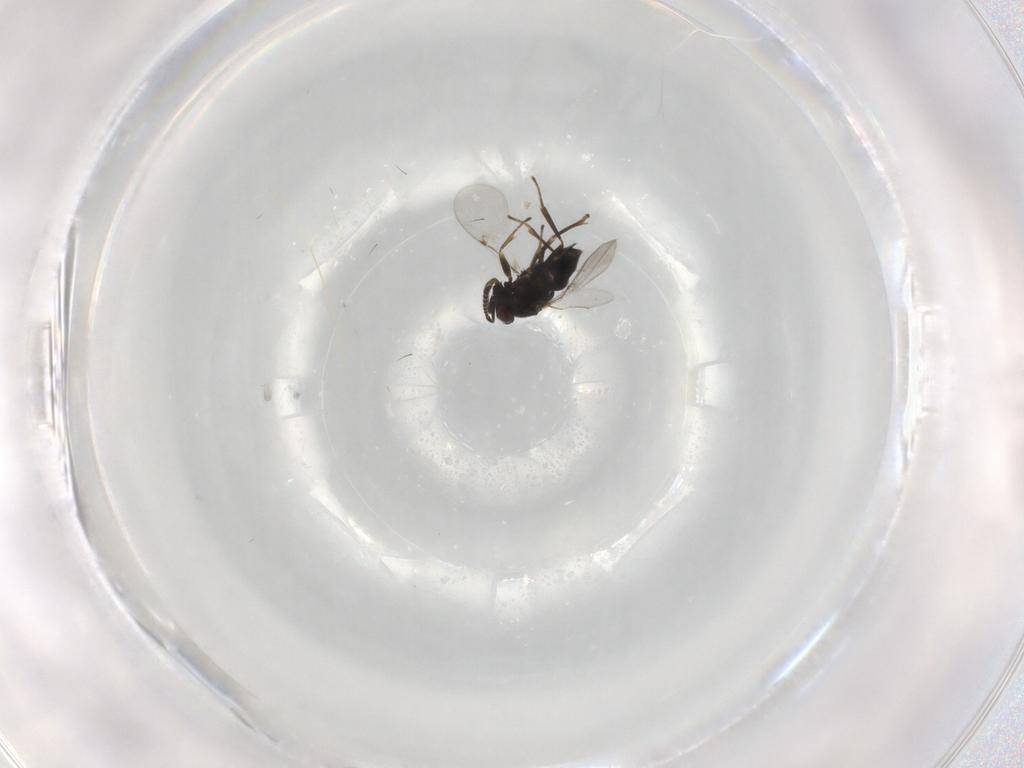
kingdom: Animalia
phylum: Arthropoda
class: Insecta
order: Hymenoptera
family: Encyrtidae
